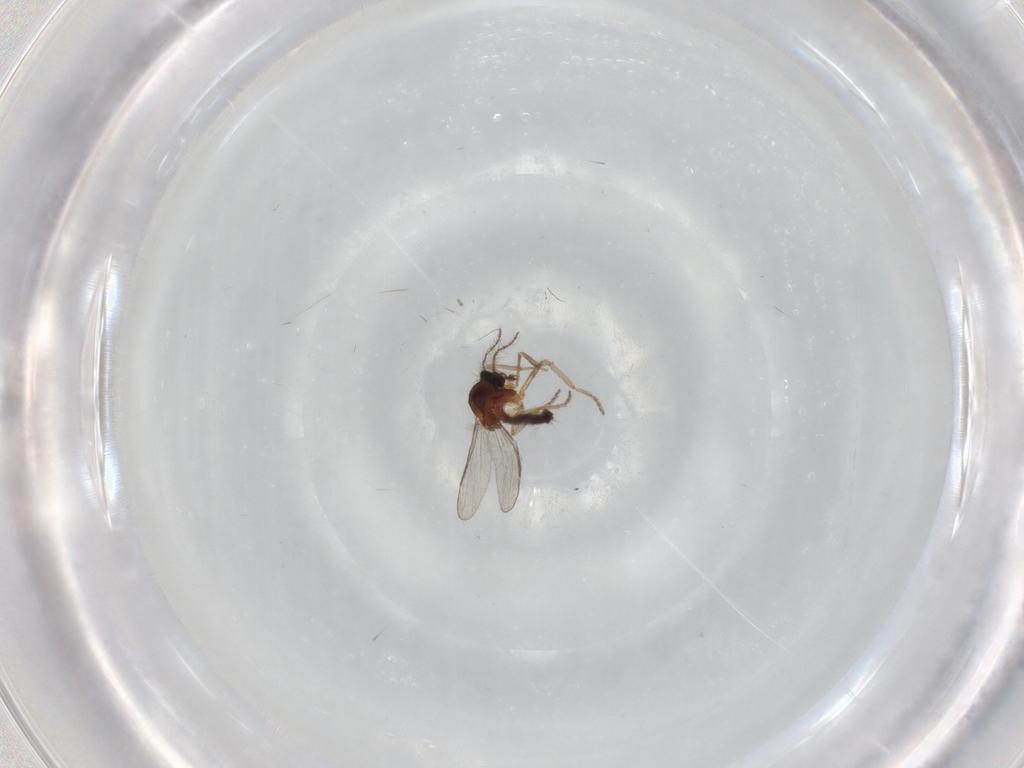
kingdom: Animalia
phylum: Arthropoda
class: Insecta
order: Diptera
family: Ceratopogonidae
